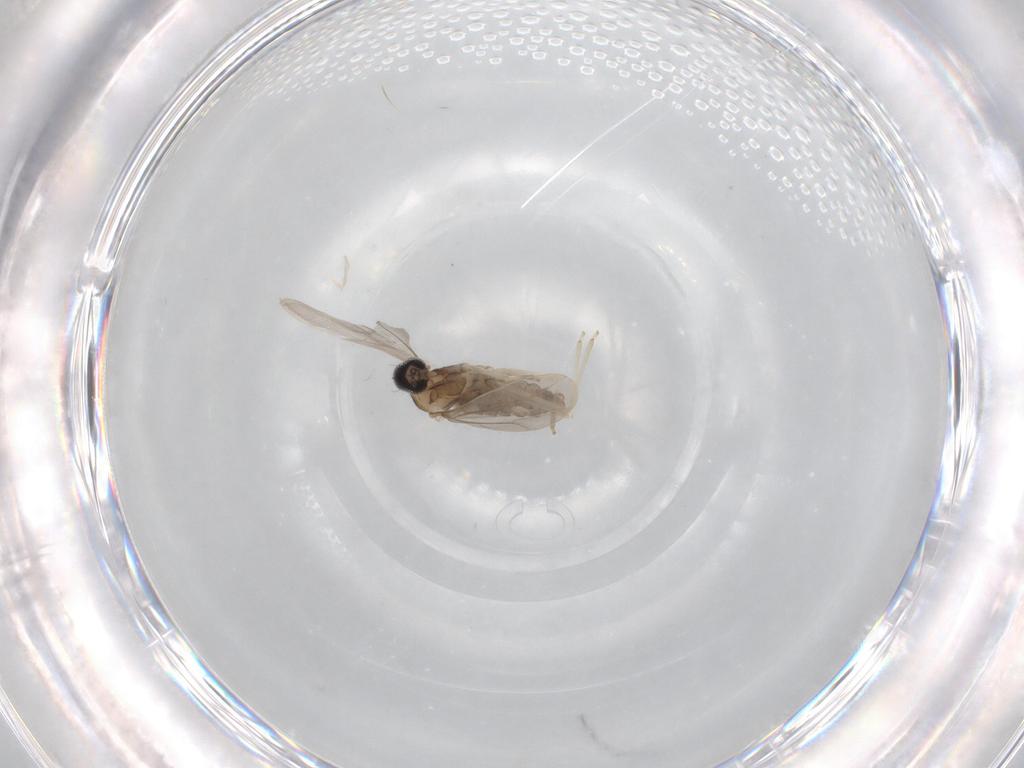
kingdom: Animalia
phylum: Arthropoda
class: Insecta
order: Diptera
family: Cecidomyiidae
